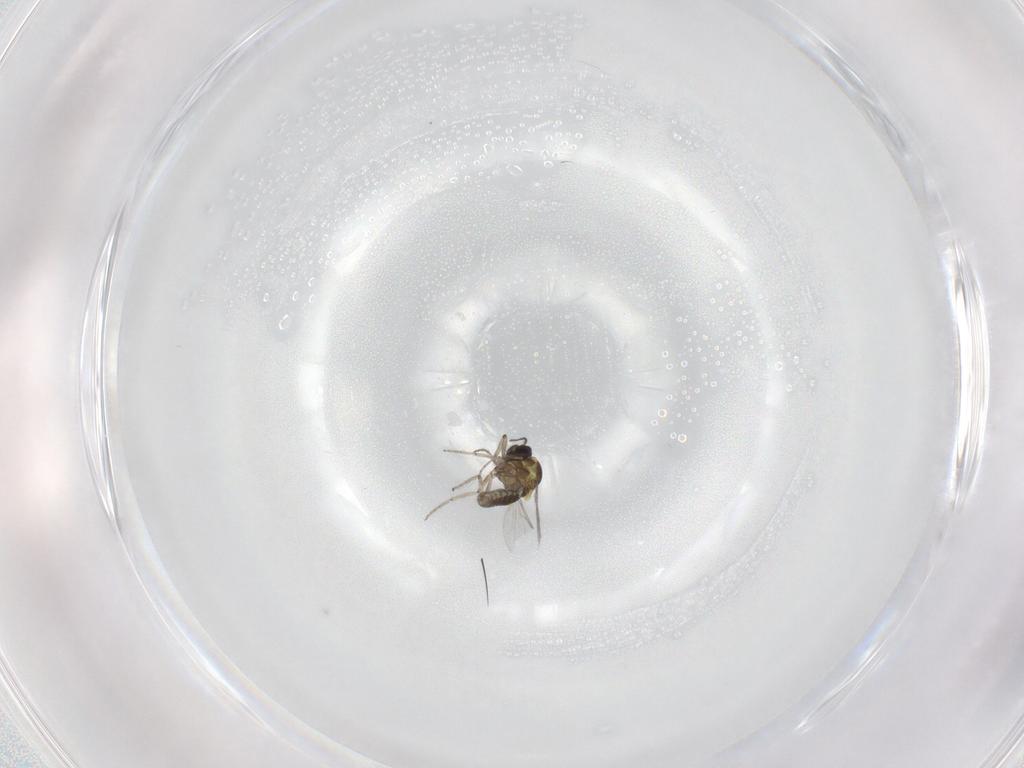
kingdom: Animalia
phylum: Arthropoda
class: Insecta
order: Diptera
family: Ceratopogonidae
